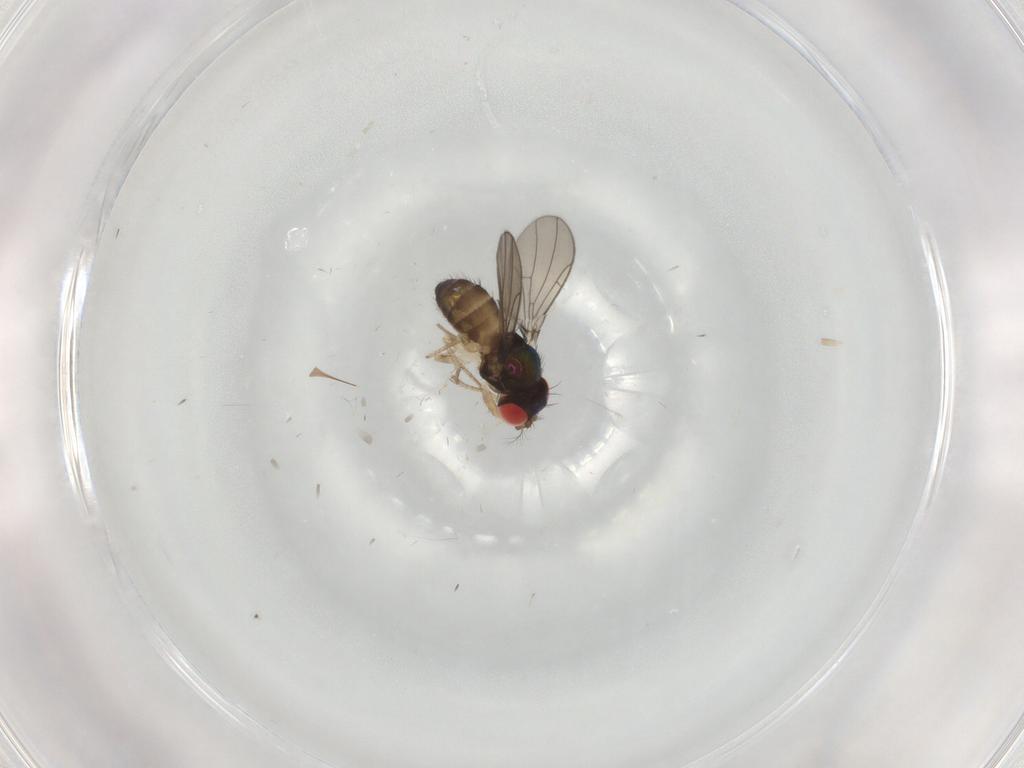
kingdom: Animalia
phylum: Arthropoda
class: Insecta
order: Diptera
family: Drosophilidae
